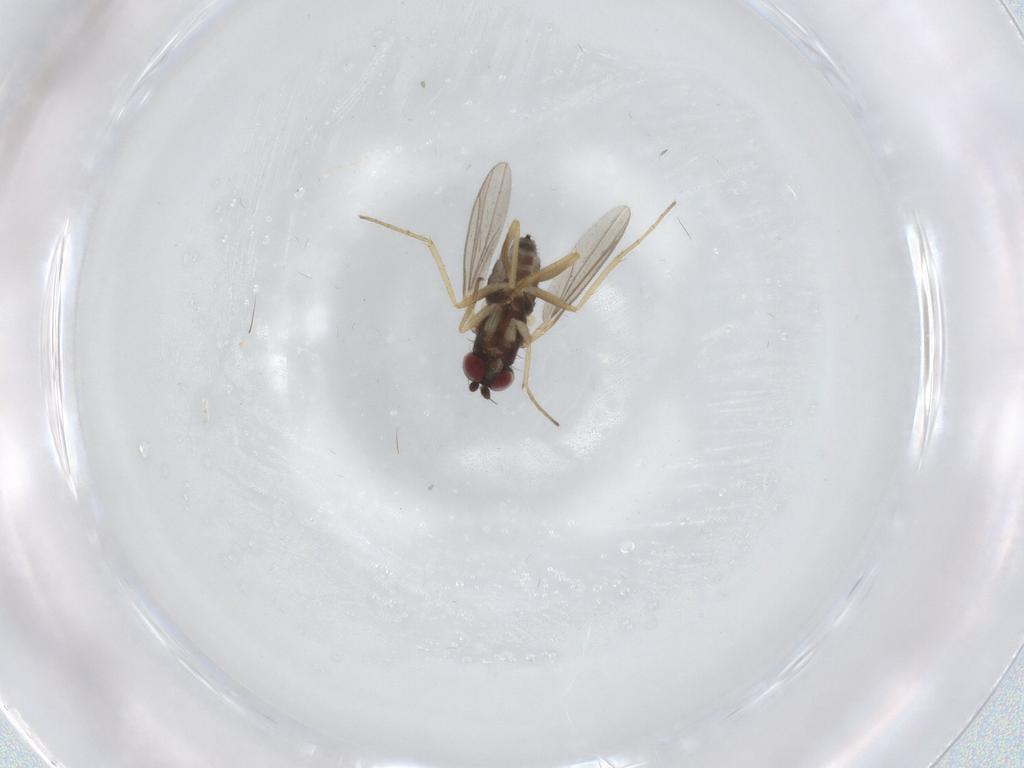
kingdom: Animalia
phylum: Arthropoda
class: Insecta
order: Diptera
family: Dolichopodidae
